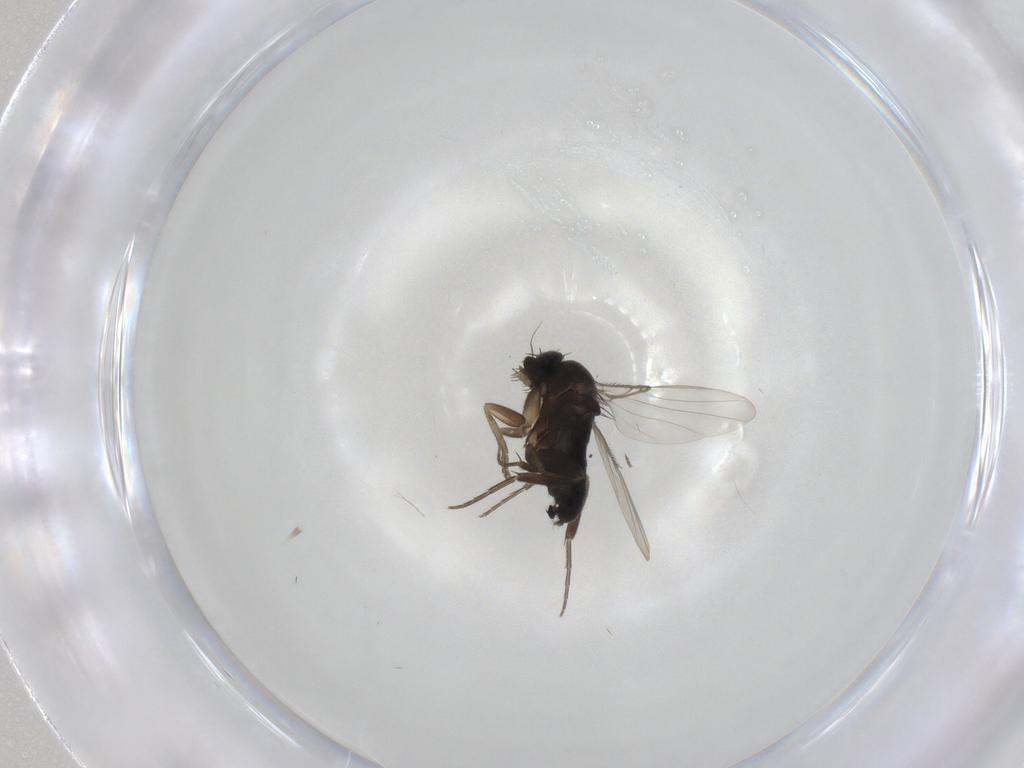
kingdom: Animalia
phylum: Arthropoda
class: Insecta
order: Diptera
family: Phoridae
